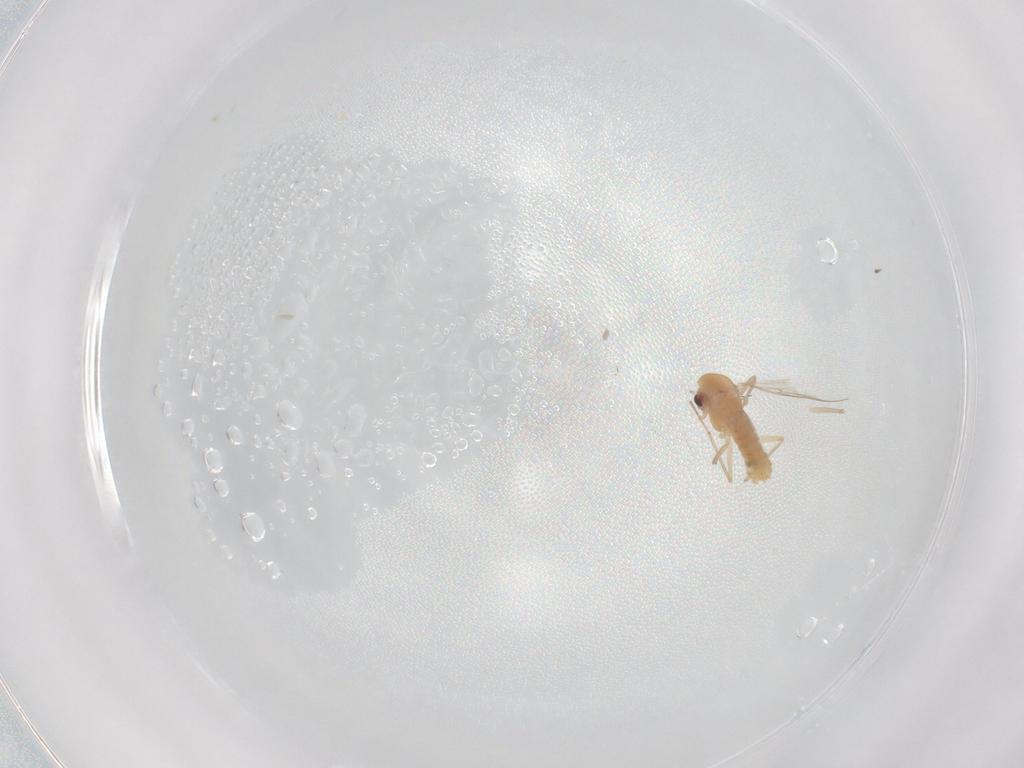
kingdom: Animalia
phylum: Arthropoda
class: Insecta
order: Diptera
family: Chironomidae
